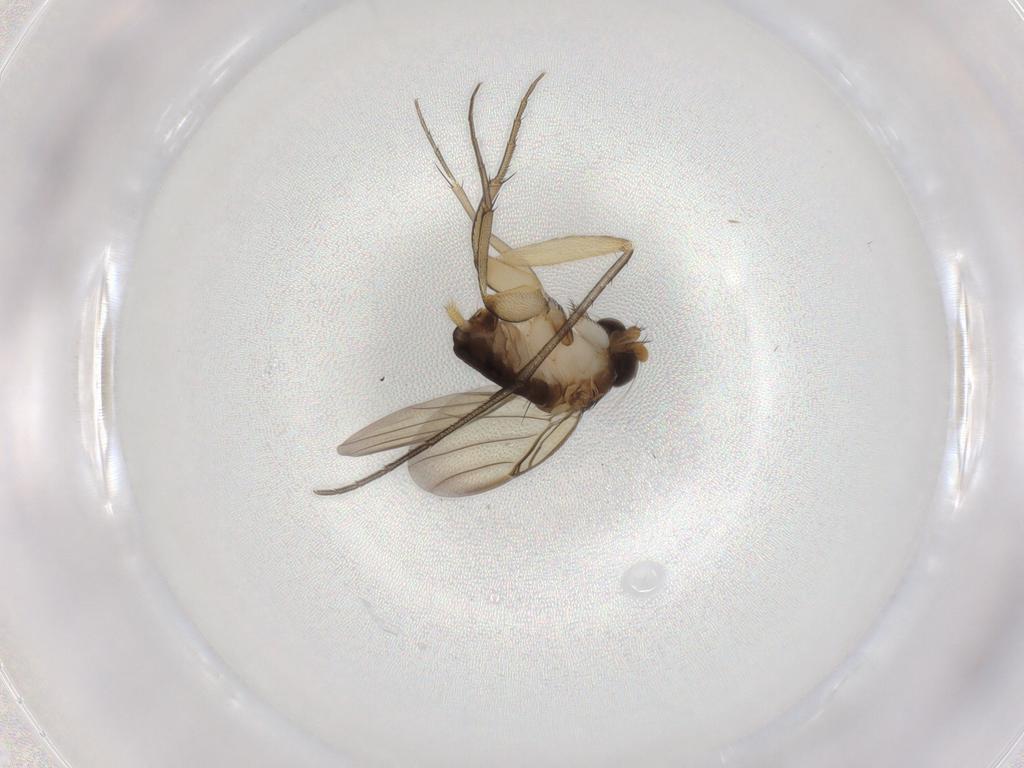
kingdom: Animalia
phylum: Arthropoda
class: Insecta
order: Diptera
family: Limoniidae
